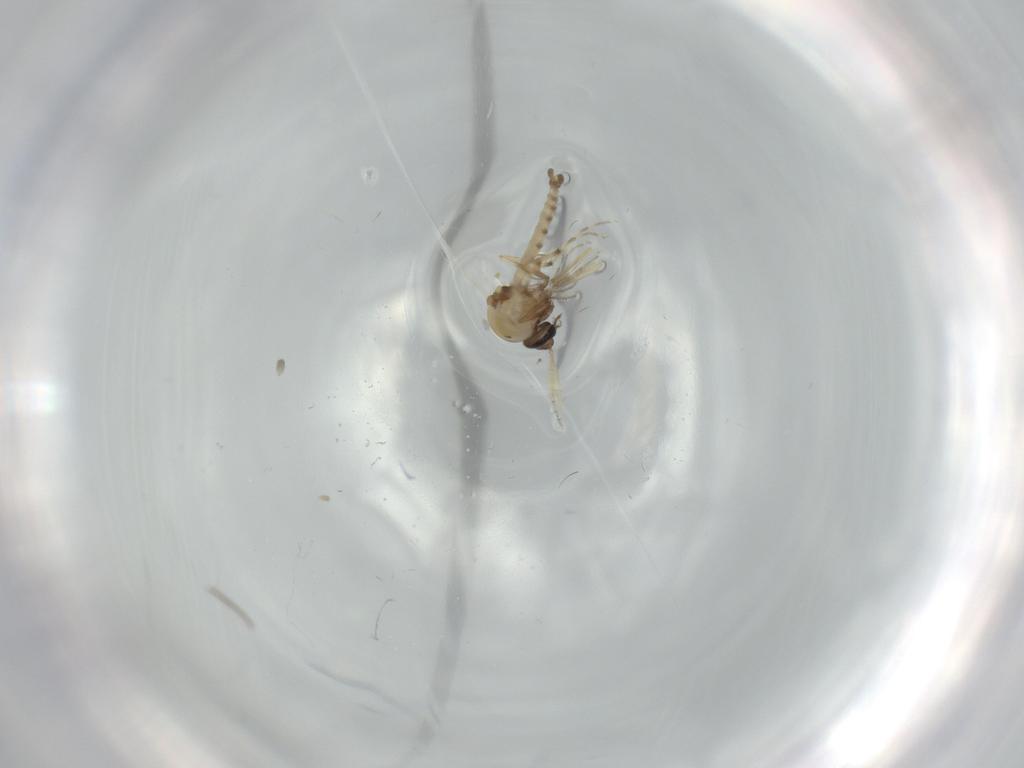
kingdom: Animalia
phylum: Arthropoda
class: Insecta
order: Diptera
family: Ceratopogonidae
